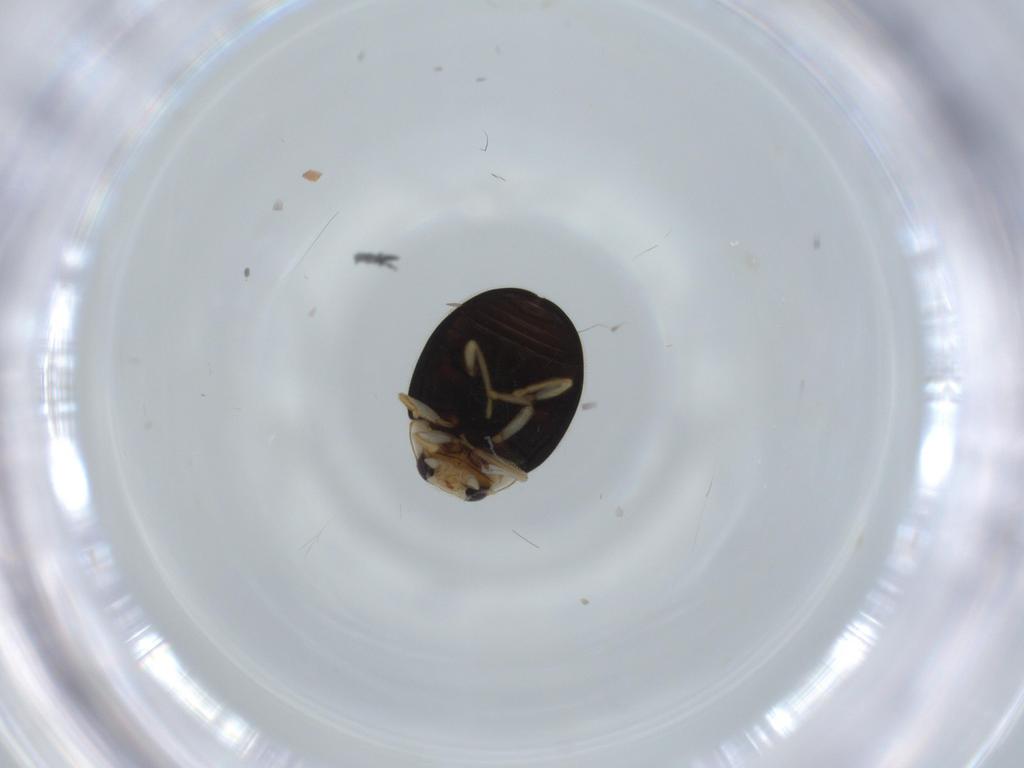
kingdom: Animalia
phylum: Arthropoda
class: Insecta
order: Coleoptera
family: Coccinellidae
